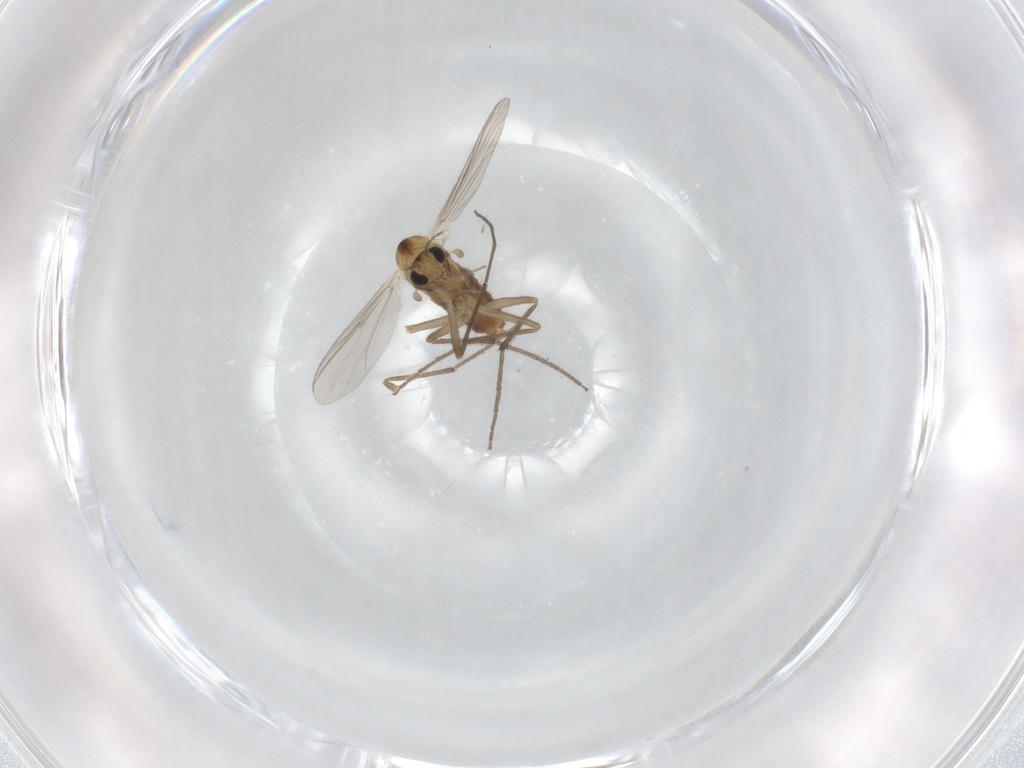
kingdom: Animalia
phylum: Arthropoda
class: Insecta
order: Diptera
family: Chironomidae
